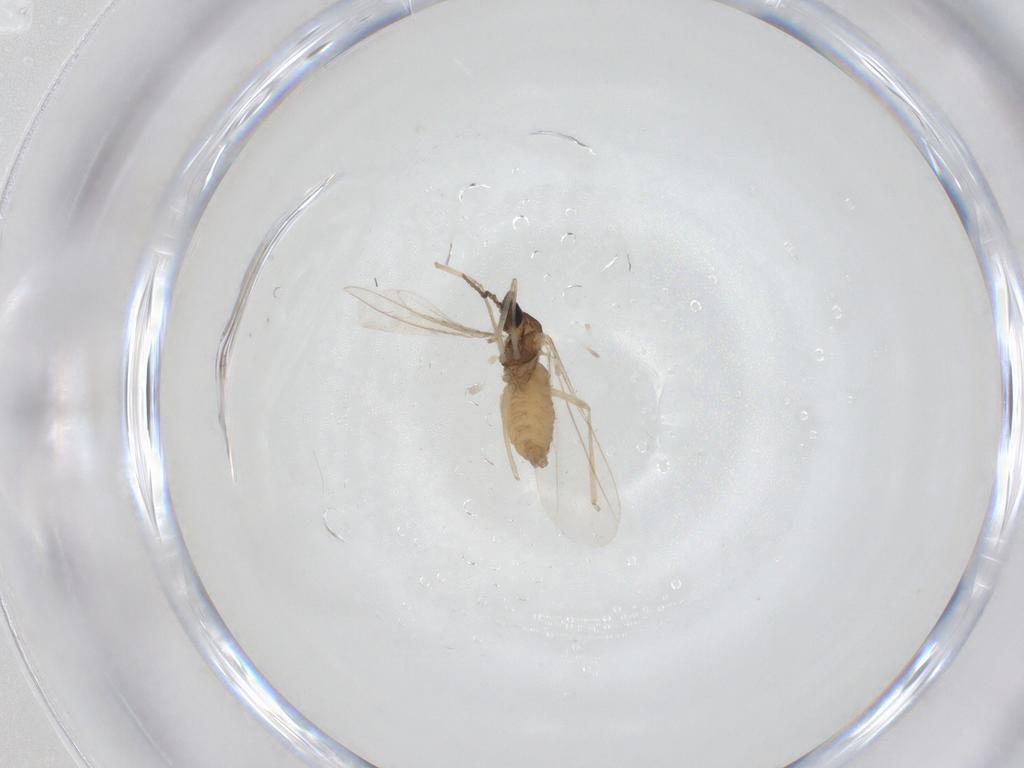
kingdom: Animalia
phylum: Arthropoda
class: Insecta
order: Diptera
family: Cecidomyiidae
